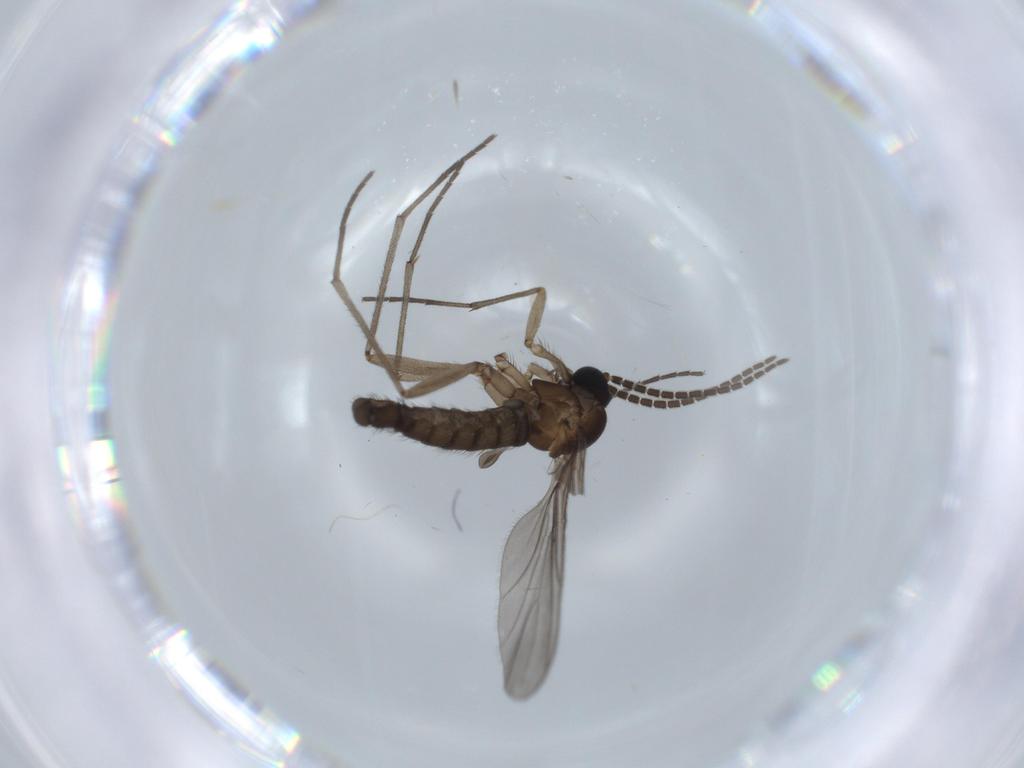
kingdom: Animalia
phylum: Arthropoda
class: Insecta
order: Diptera
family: Sciaridae
